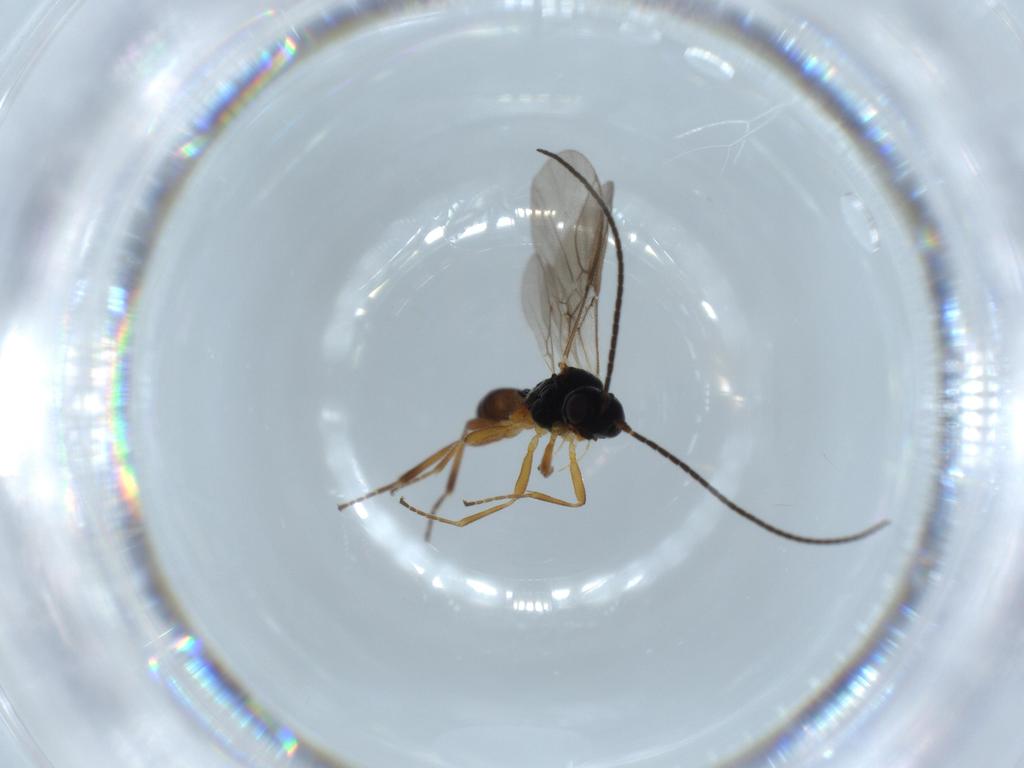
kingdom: Animalia
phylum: Arthropoda
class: Insecta
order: Hymenoptera
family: Braconidae
